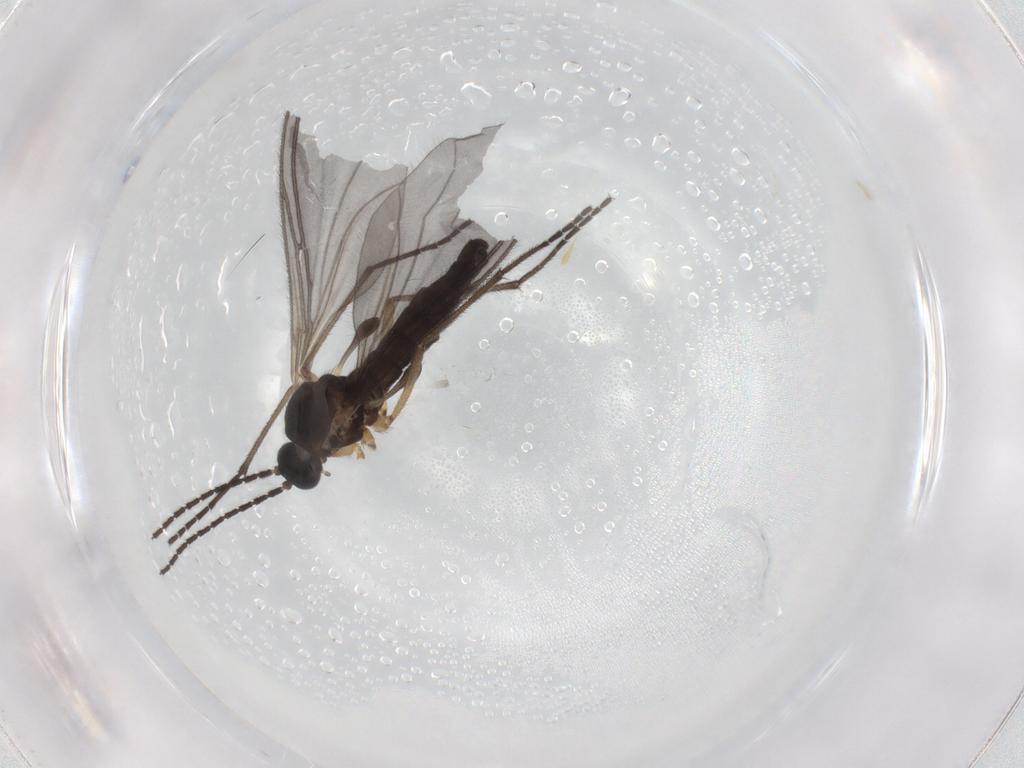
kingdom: Animalia
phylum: Arthropoda
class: Insecta
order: Diptera
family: Sciaridae
